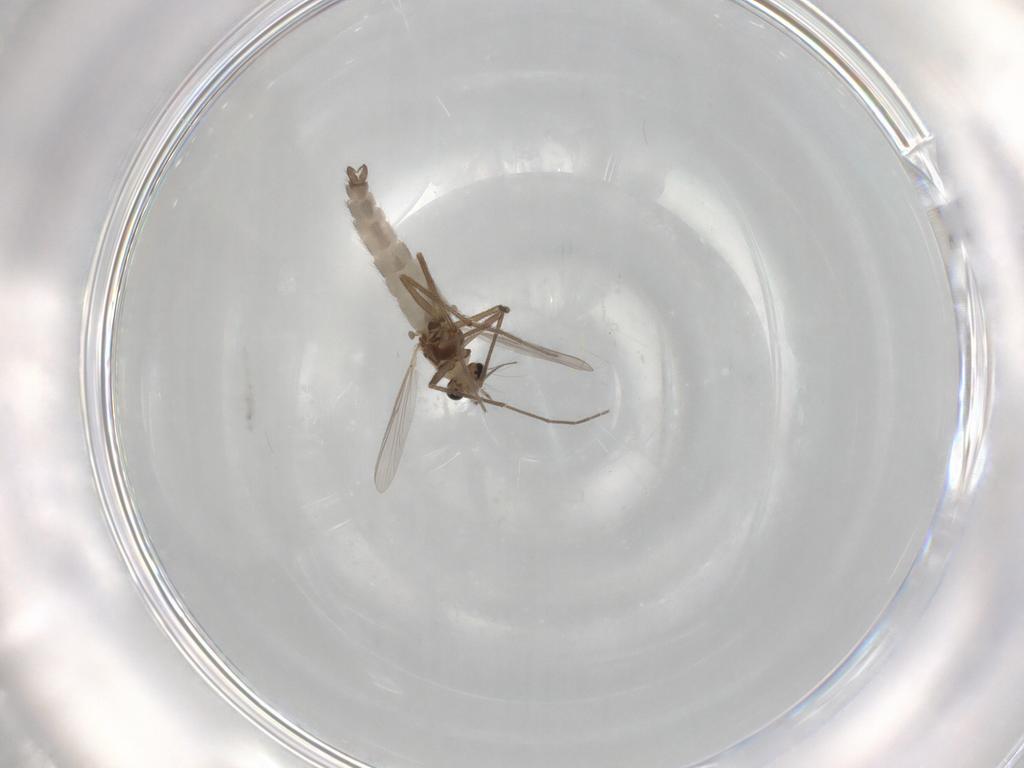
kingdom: Animalia
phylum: Arthropoda
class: Insecta
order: Diptera
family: Chironomidae
